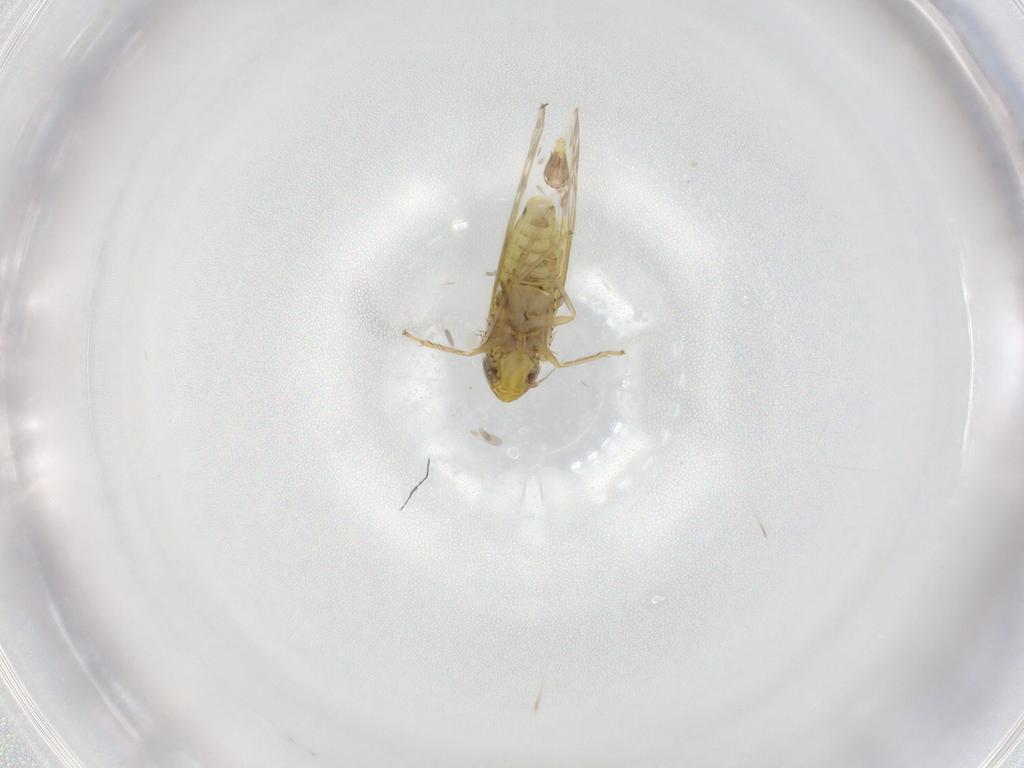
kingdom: Animalia
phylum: Arthropoda
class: Insecta
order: Hemiptera
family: Cicadellidae
